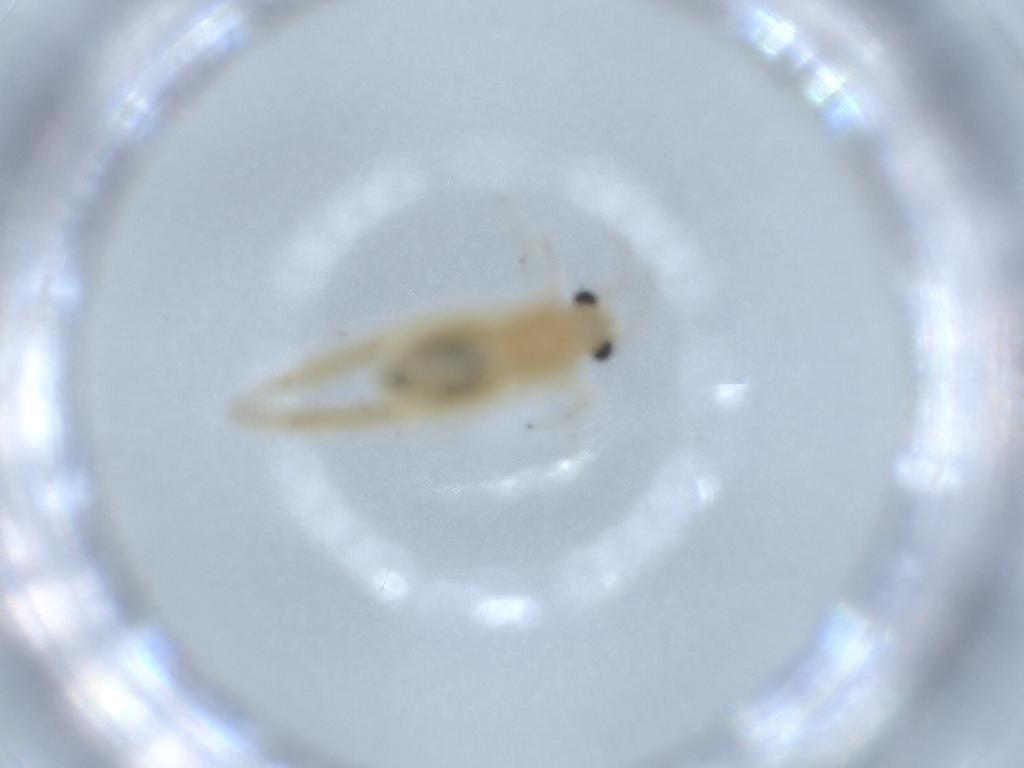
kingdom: Animalia
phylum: Arthropoda
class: Insecta
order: Psocodea
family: Caeciliusidae
